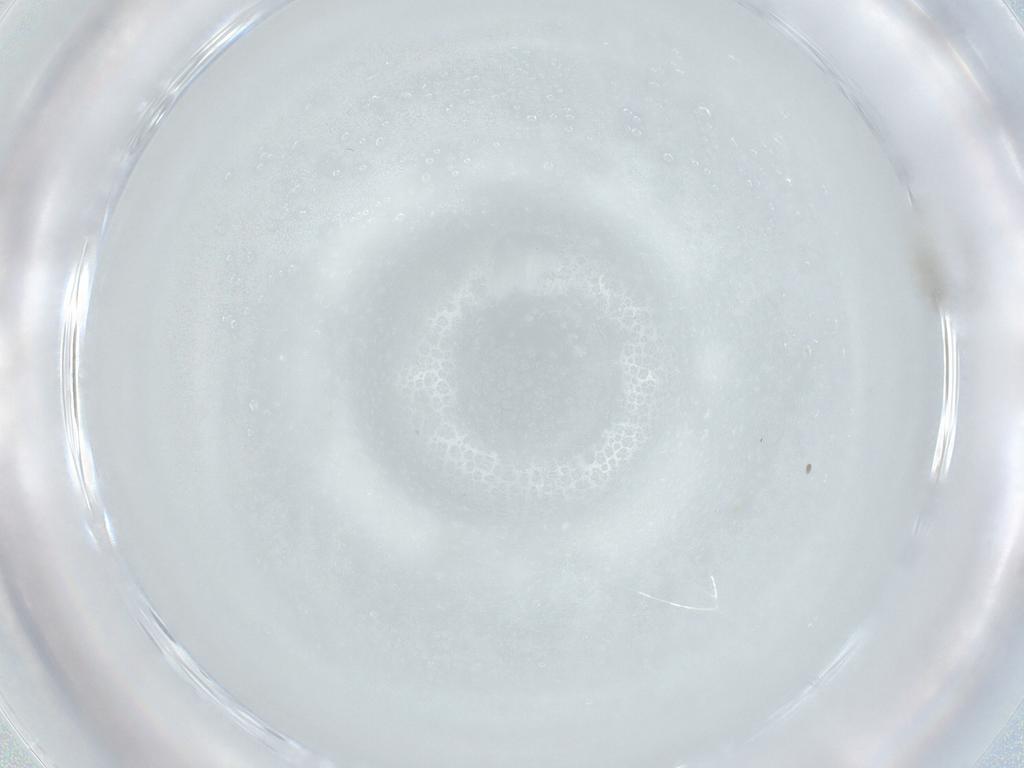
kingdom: Animalia
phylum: Arthropoda
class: Insecta
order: Diptera
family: Cecidomyiidae
